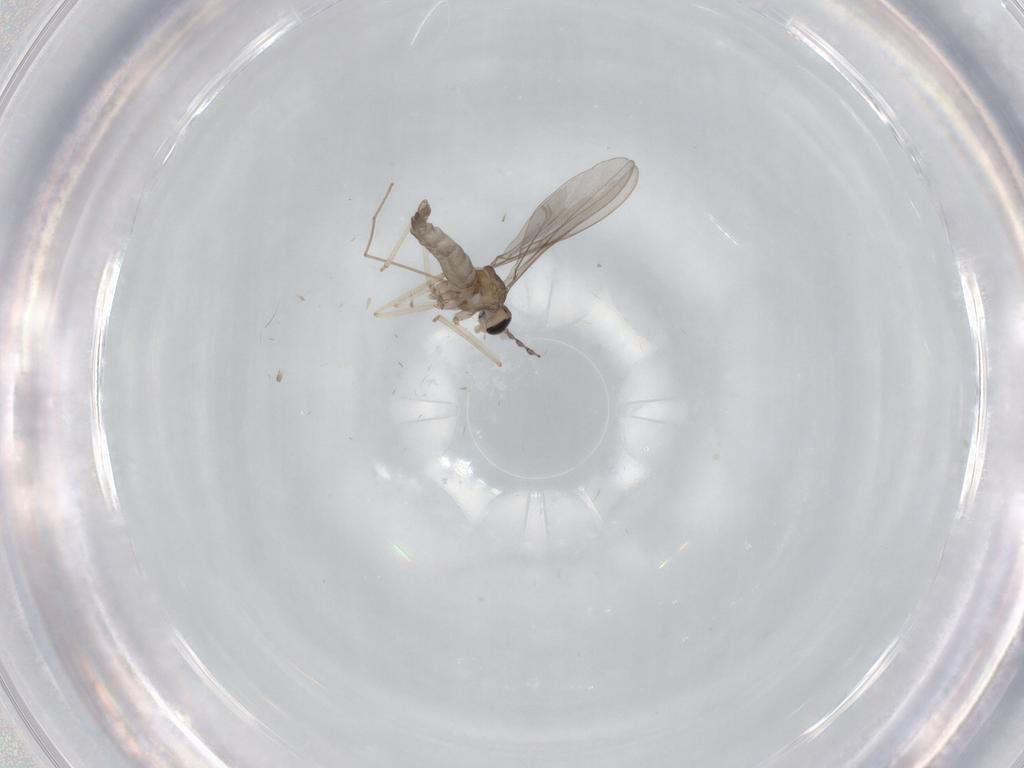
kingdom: Animalia
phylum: Arthropoda
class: Insecta
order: Diptera
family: Cecidomyiidae
